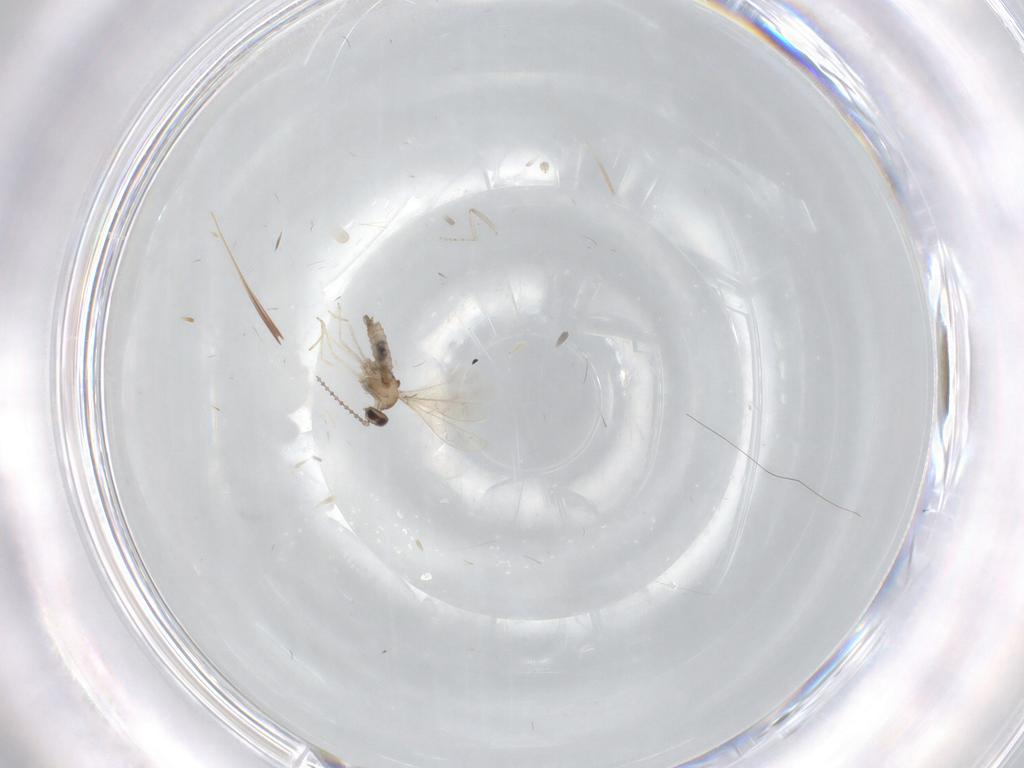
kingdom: Animalia
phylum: Arthropoda
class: Insecta
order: Diptera
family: Cecidomyiidae
